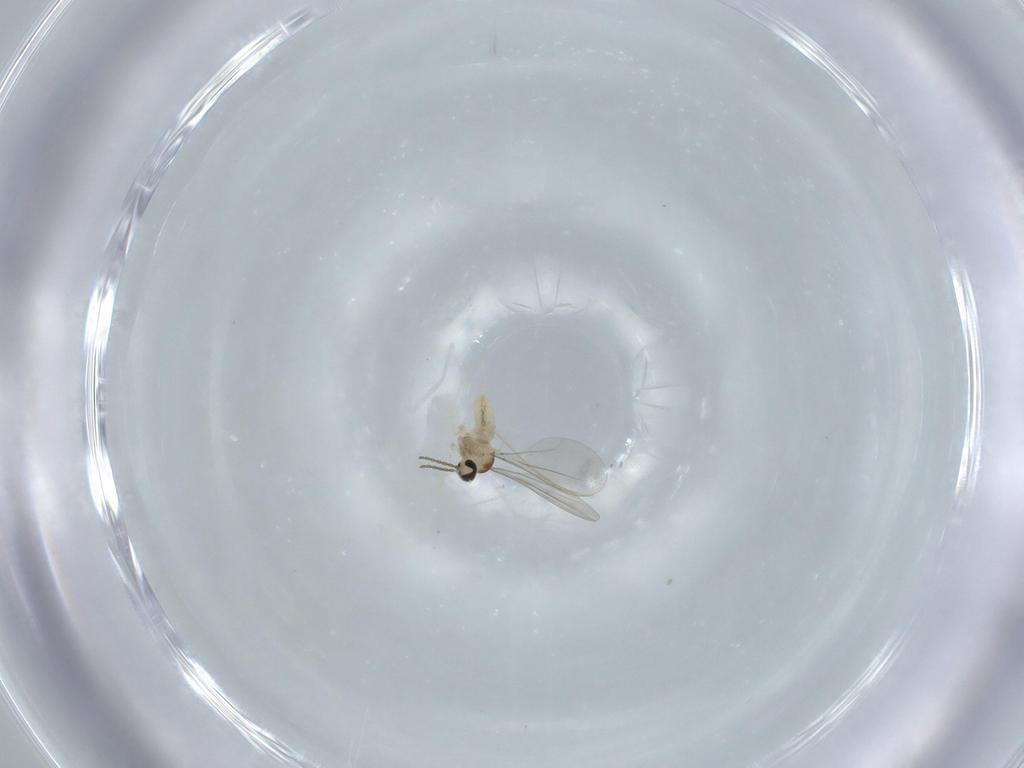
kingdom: Animalia
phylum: Arthropoda
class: Insecta
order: Diptera
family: Cecidomyiidae
